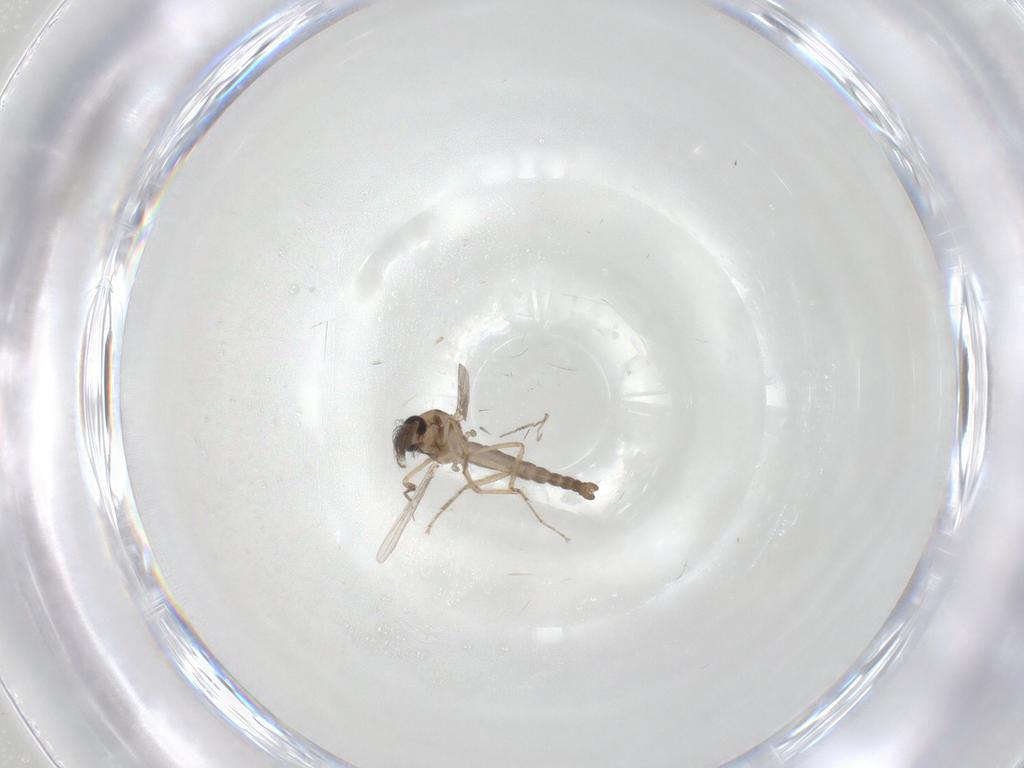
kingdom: Animalia
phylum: Arthropoda
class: Insecta
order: Diptera
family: Ceratopogonidae
